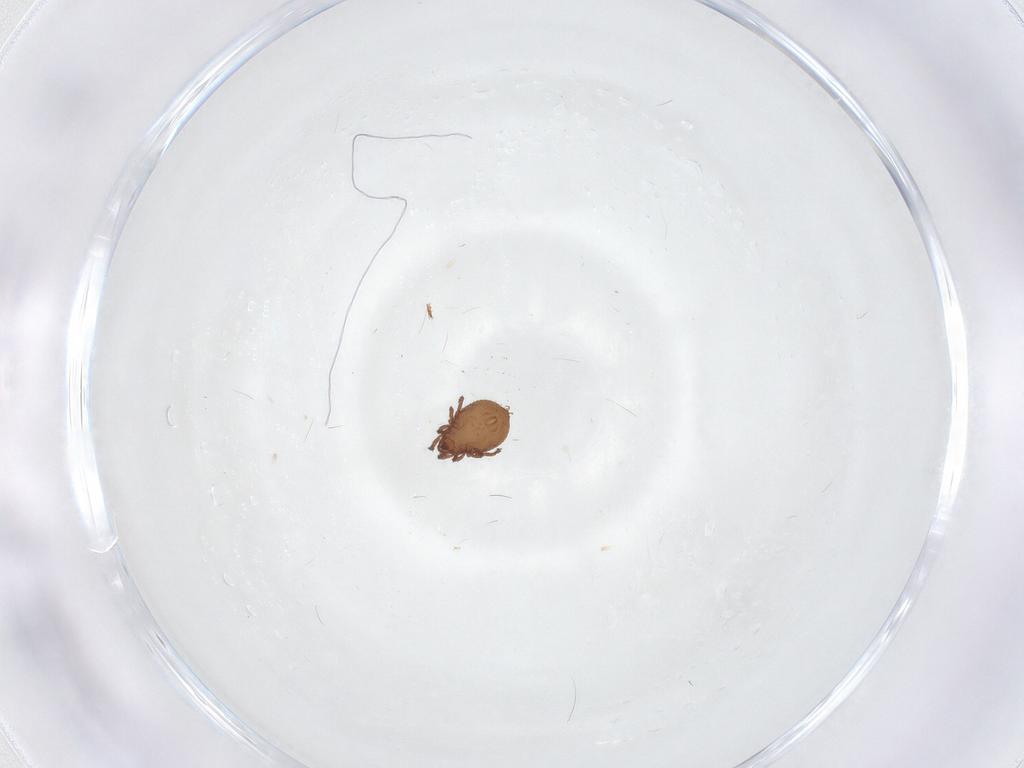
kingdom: Animalia
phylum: Arthropoda
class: Arachnida
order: Sarcoptiformes
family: Ceratozetidae
